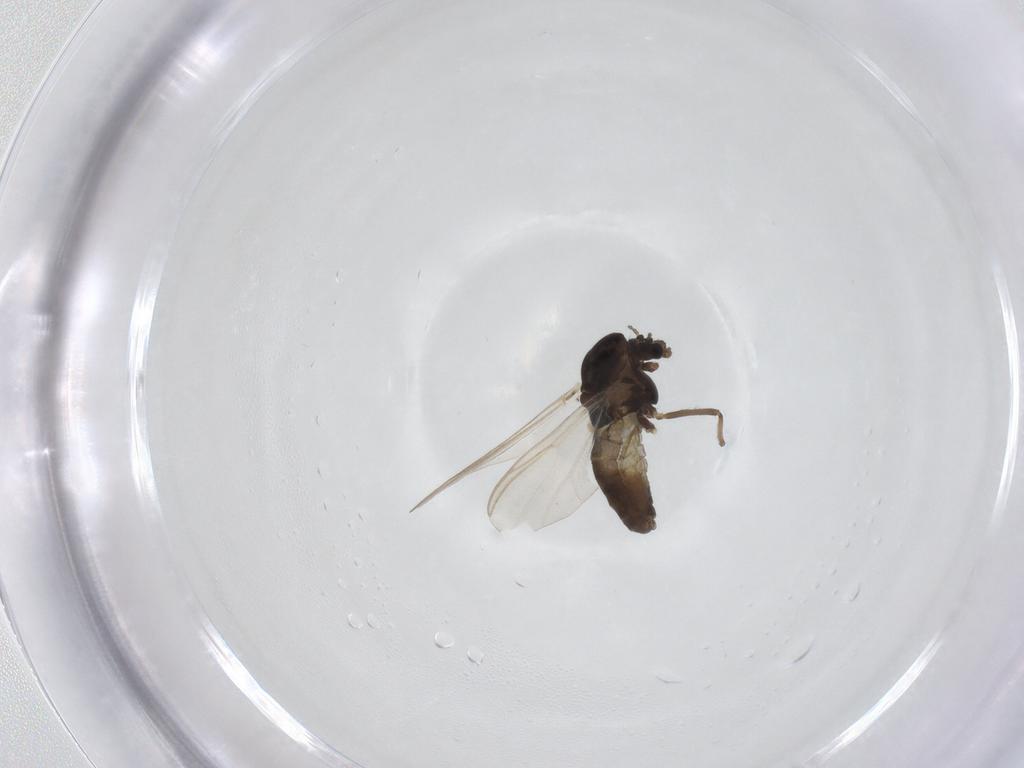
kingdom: Animalia
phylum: Arthropoda
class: Insecta
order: Diptera
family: Chironomidae
